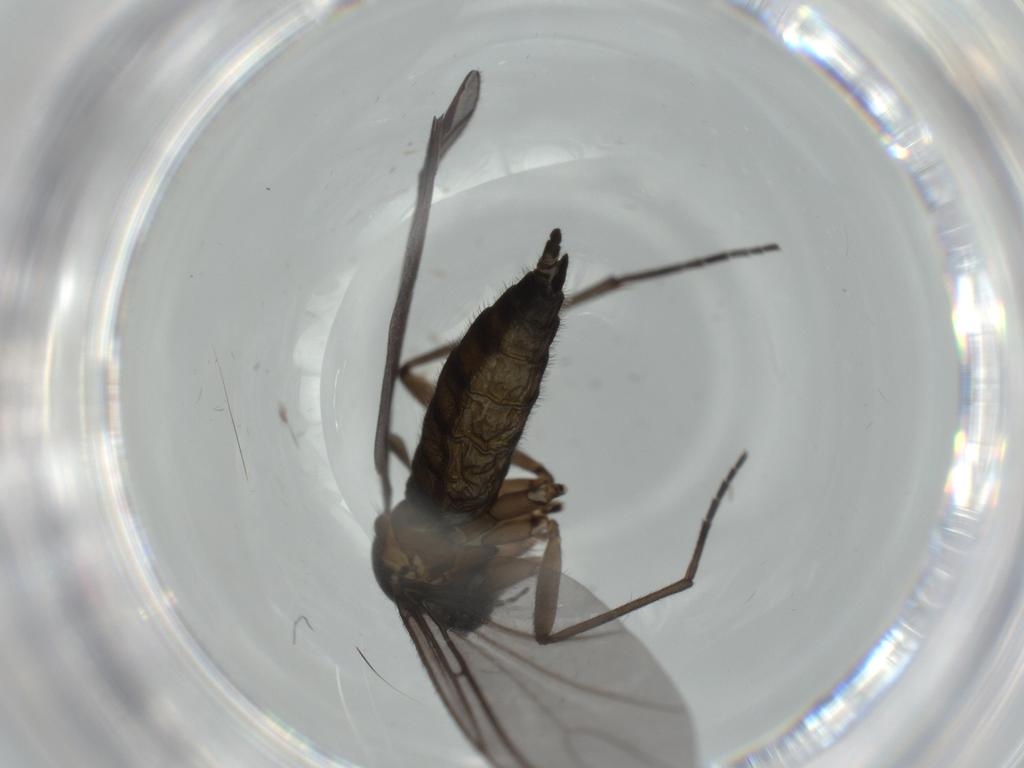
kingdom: Animalia
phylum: Arthropoda
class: Insecta
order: Diptera
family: Sciaridae
